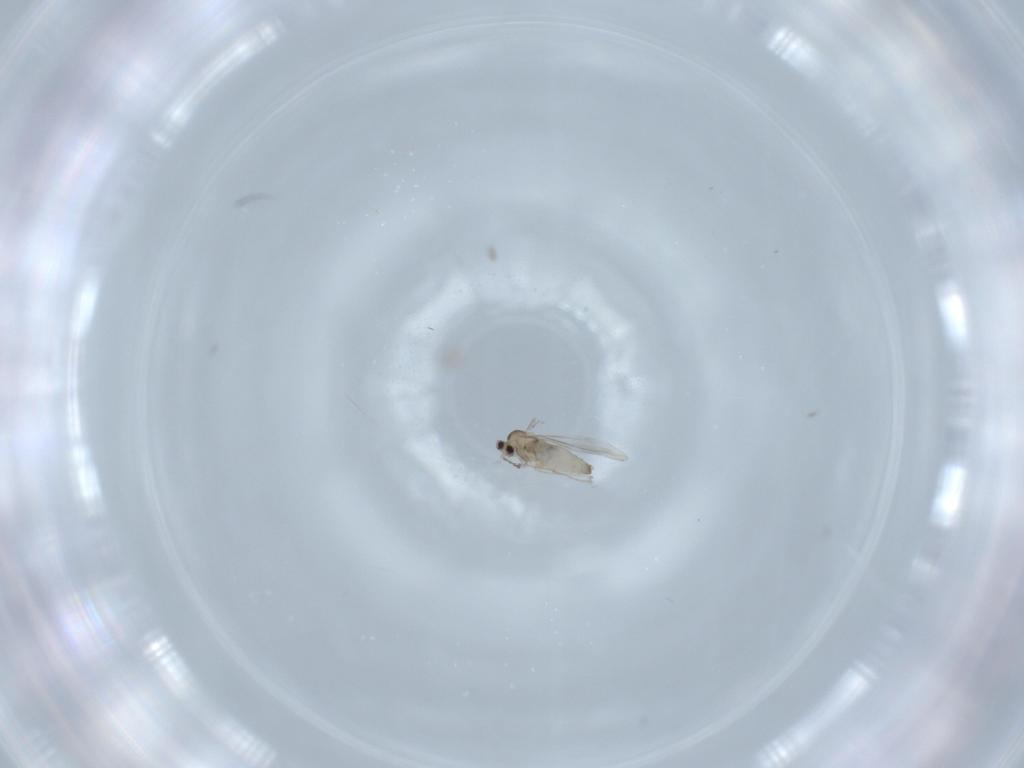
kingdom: Animalia
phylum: Arthropoda
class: Insecta
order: Diptera
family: Cecidomyiidae
